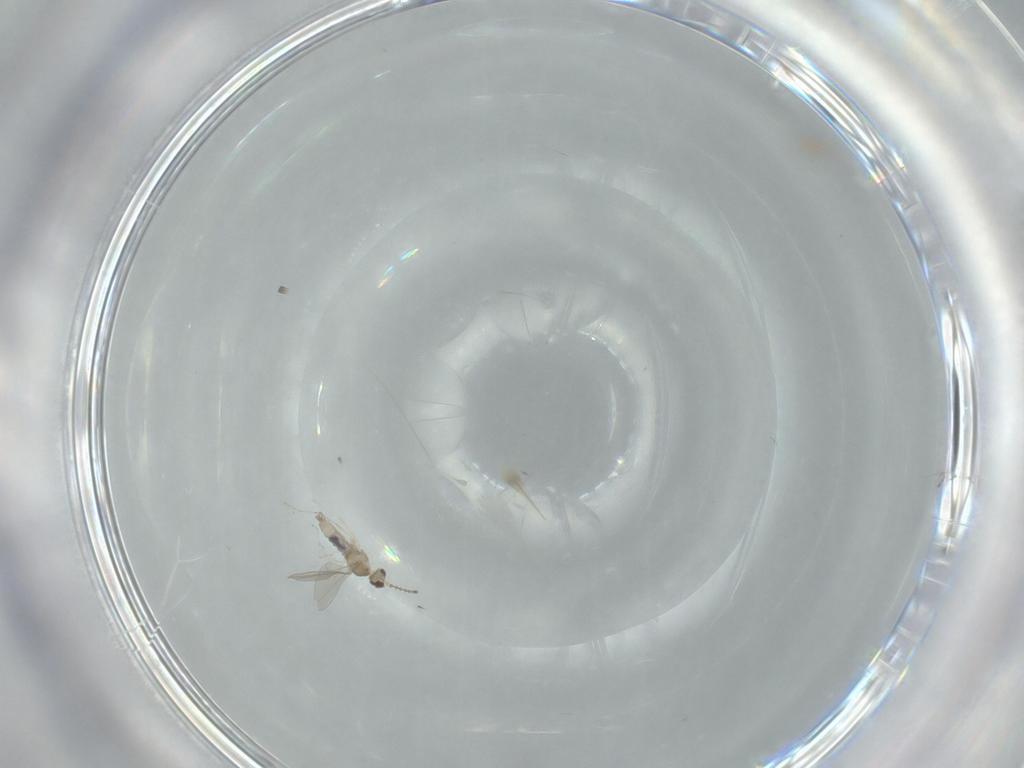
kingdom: Animalia
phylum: Arthropoda
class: Insecta
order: Diptera
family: Cecidomyiidae
